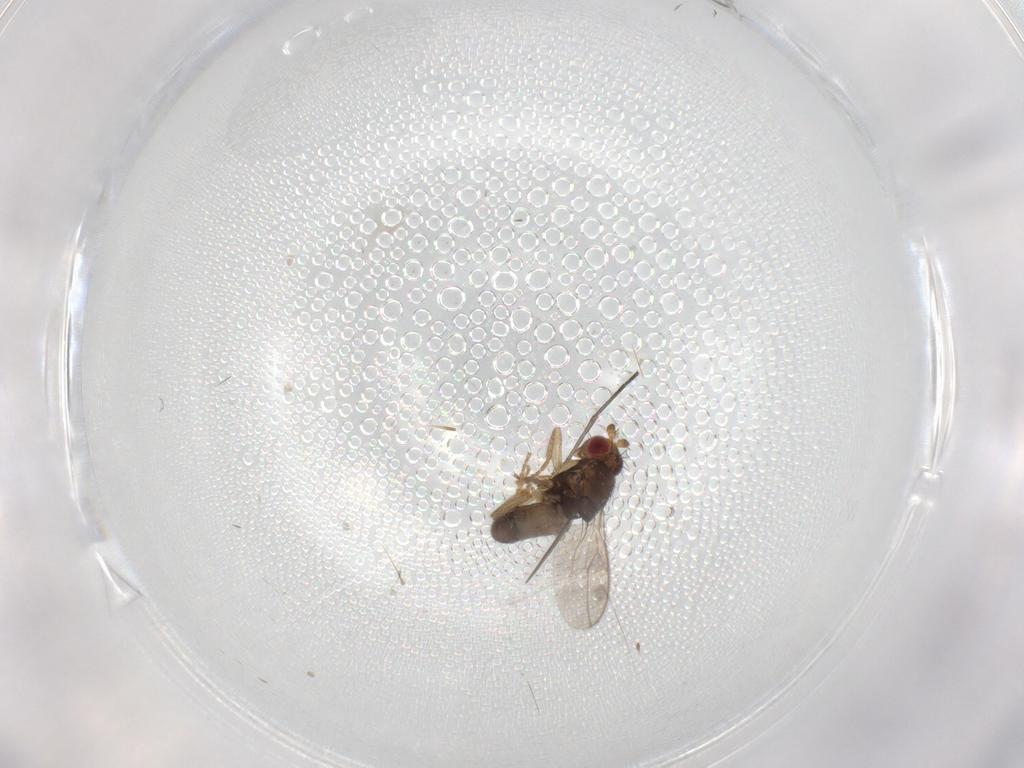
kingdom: Animalia
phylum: Arthropoda
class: Insecta
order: Diptera
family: Sphaeroceridae
